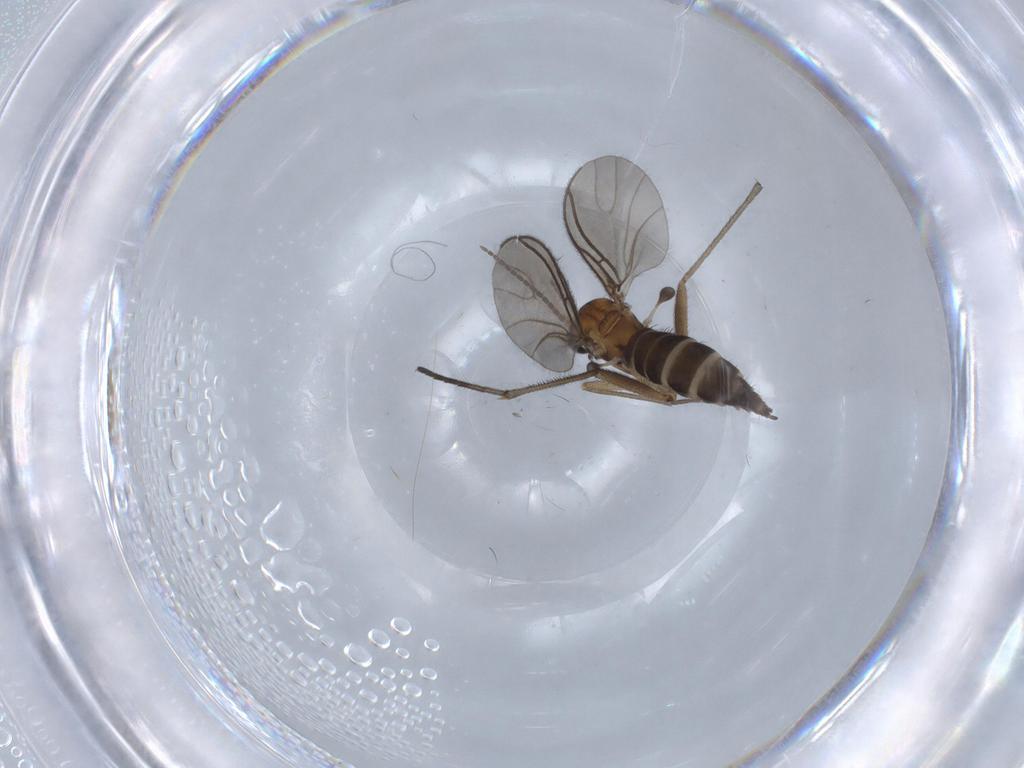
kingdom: Animalia
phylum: Arthropoda
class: Insecta
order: Diptera
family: Sciaridae
